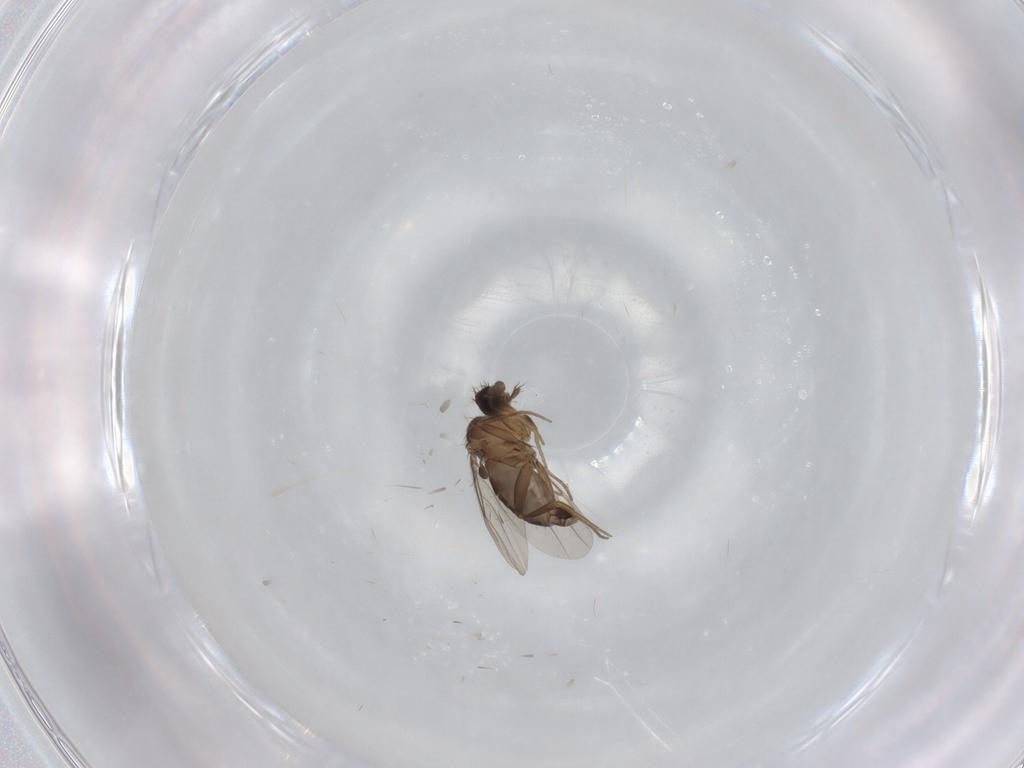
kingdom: Animalia
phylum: Arthropoda
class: Insecta
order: Diptera
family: Phoridae
